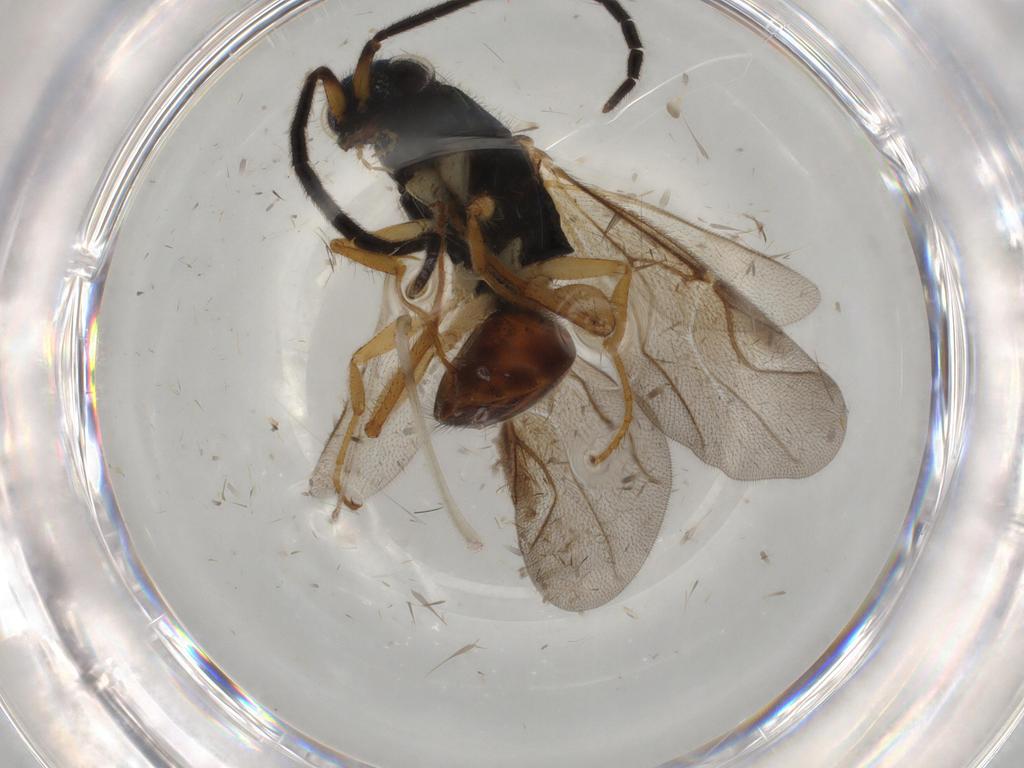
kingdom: Animalia
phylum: Arthropoda
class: Insecta
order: Hymenoptera
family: Chrysididae
